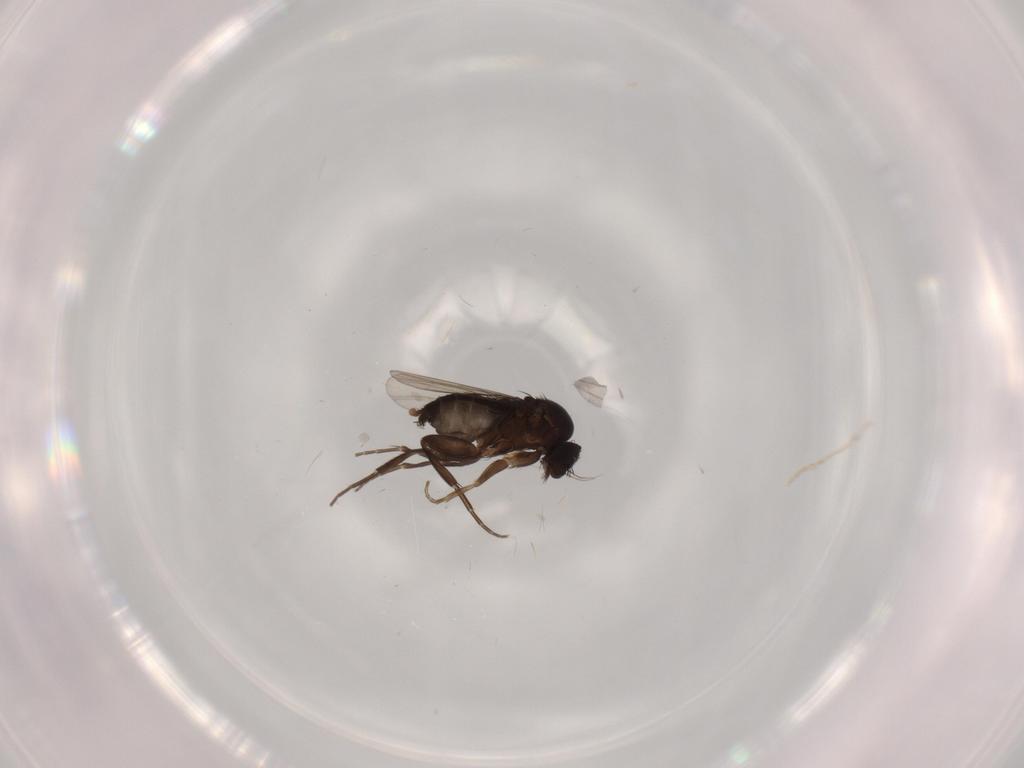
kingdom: Animalia
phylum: Arthropoda
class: Insecta
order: Diptera
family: Phoridae
